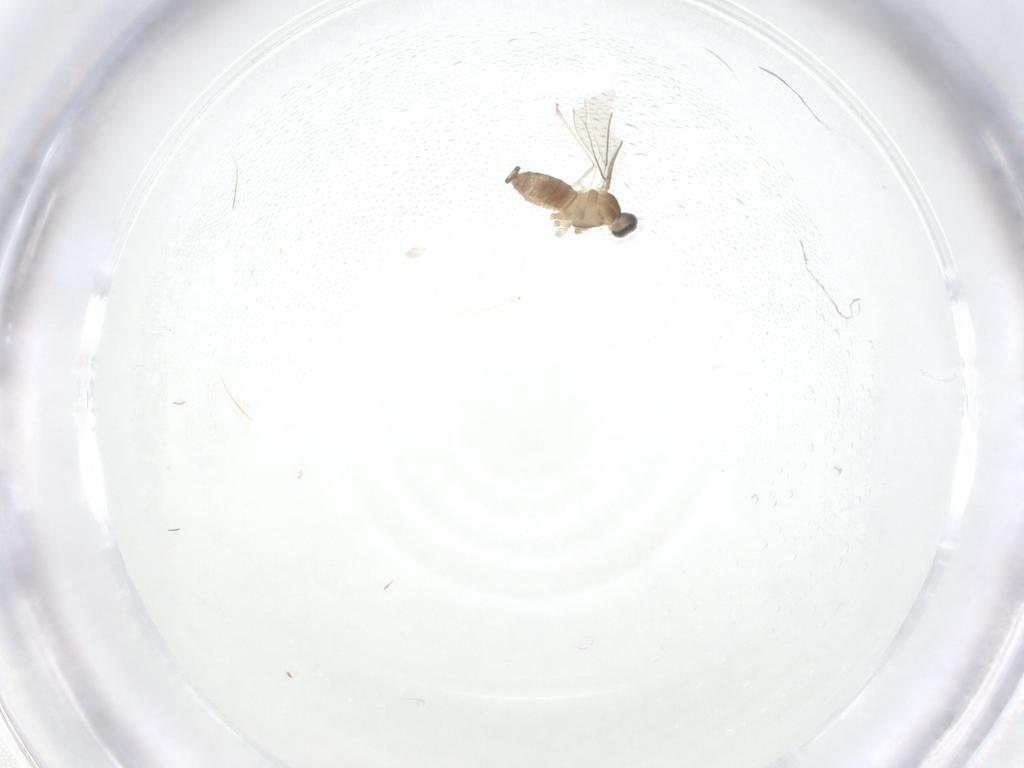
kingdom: Animalia
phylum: Arthropoda
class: Insecta
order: Diptera
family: Cecidomyiidae
